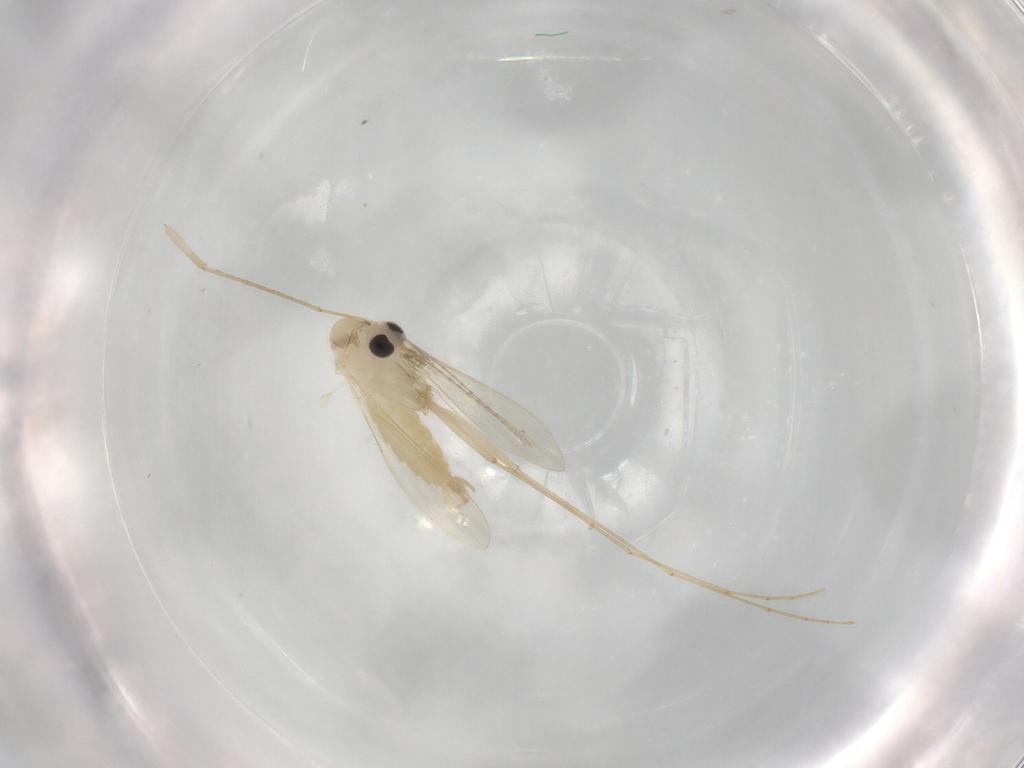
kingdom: Animalia
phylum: Arthropoda
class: Insecta
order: Diptera
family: Psychodidae
